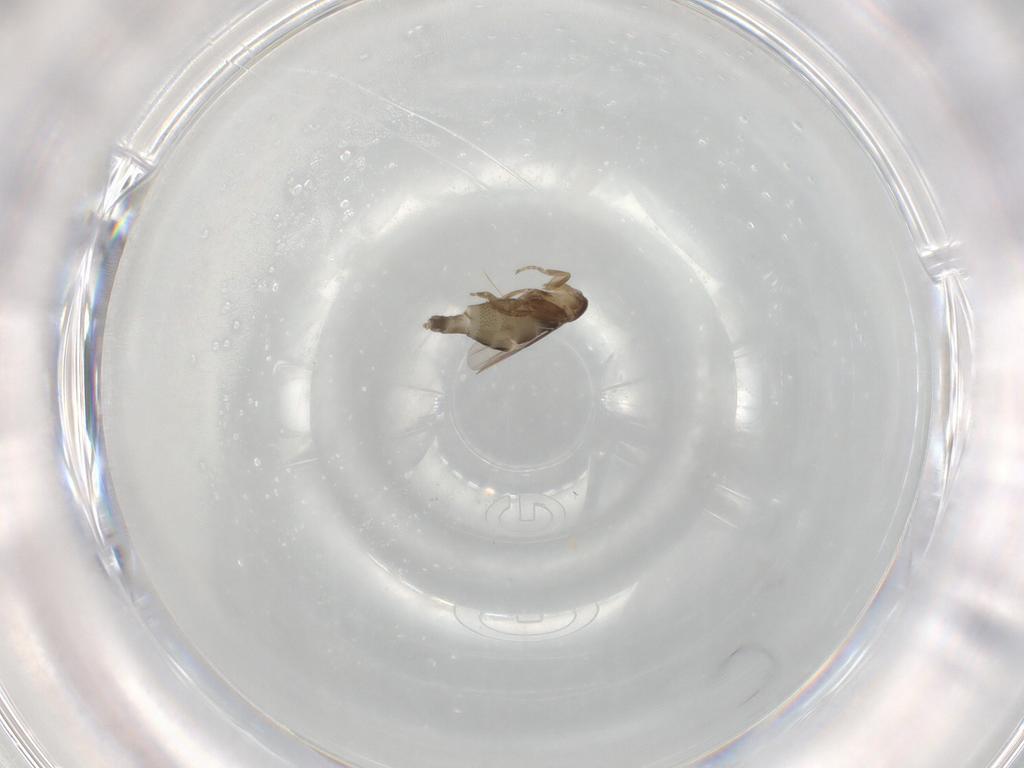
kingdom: Animalia
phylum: Arthropoda
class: Insecta
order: Diptera
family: Phoridae
